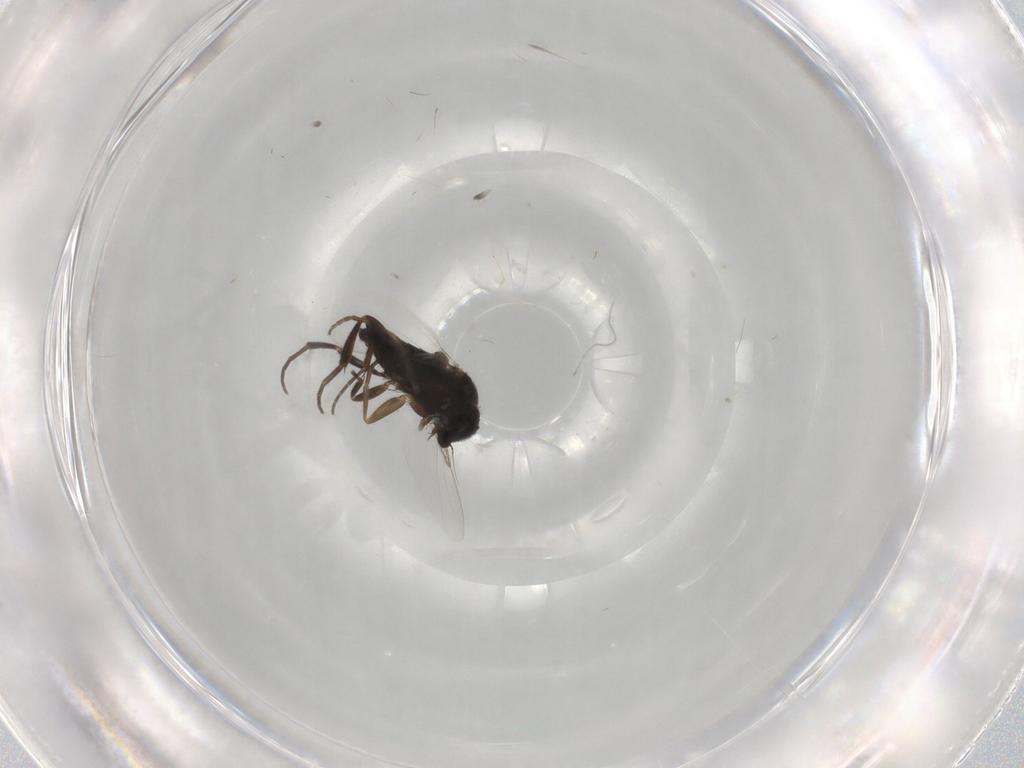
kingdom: Animalia
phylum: Arthropoda
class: Insecta
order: Diptera
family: Phoridae
